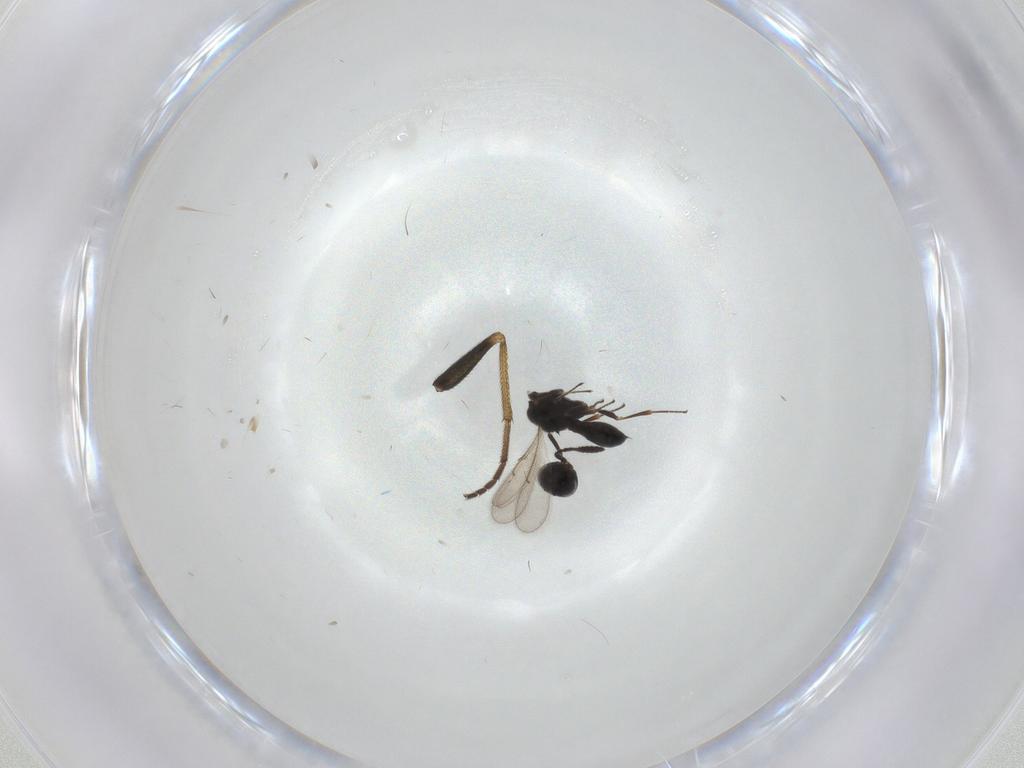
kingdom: Animalia
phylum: Arthropoda
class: Insecta
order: Hymenoptera
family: Scelionidae
